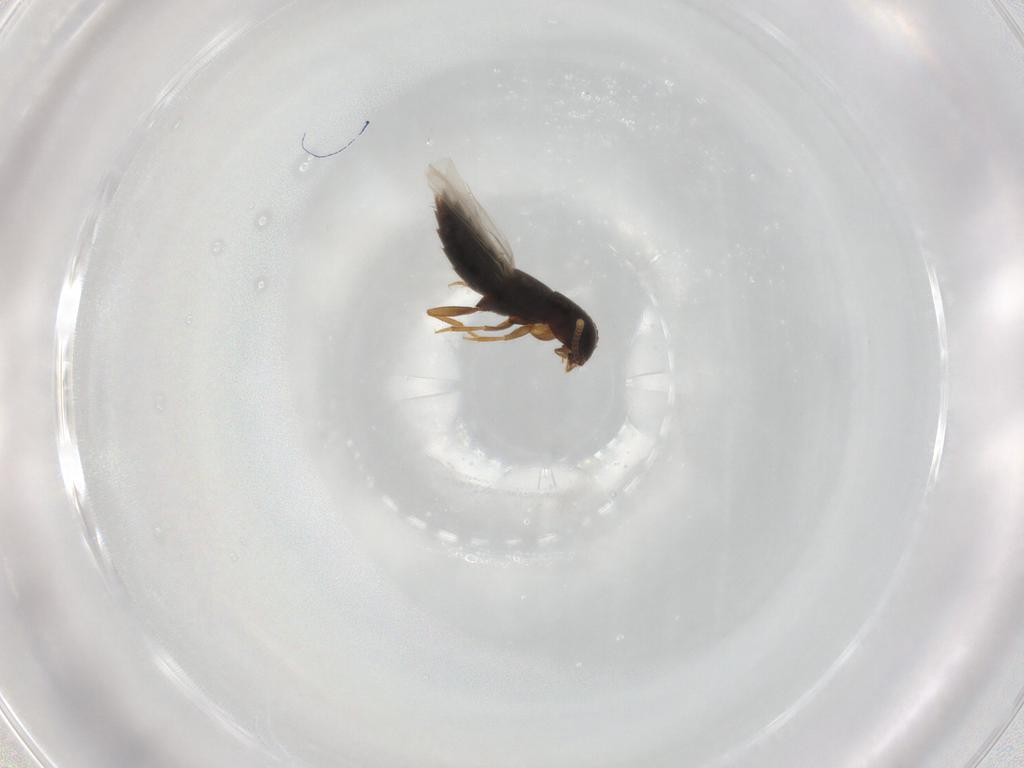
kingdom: Animalia
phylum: Arthropoda
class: Insecta
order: Coleoptera
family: Staphylinidae
